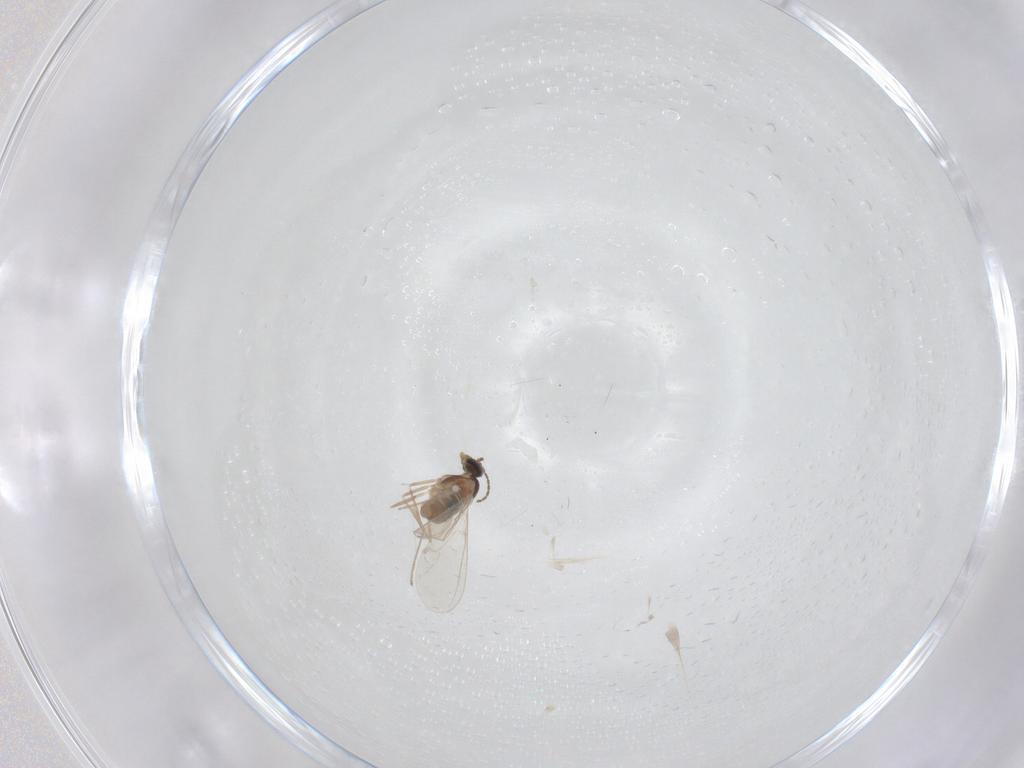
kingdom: Animalia
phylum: Arthropoda
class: Insecta
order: Diptera
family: Cecidomyiidae
